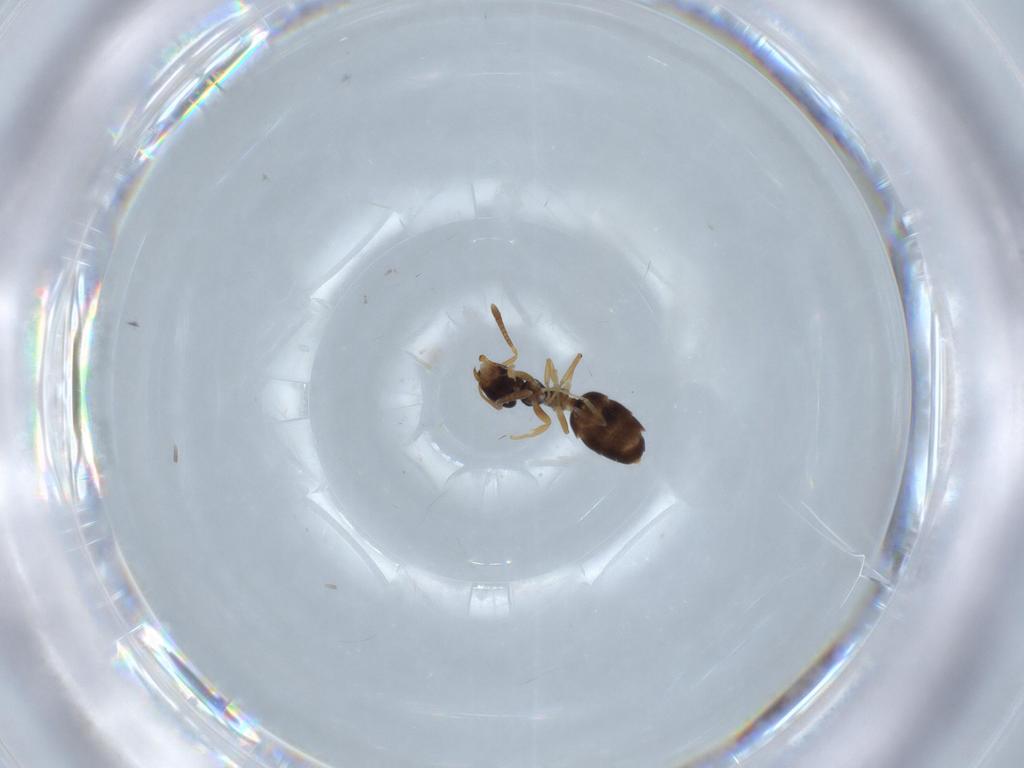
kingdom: Animalia
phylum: Arthropoda
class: Insecta
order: Hymenoptera
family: Formicidae
